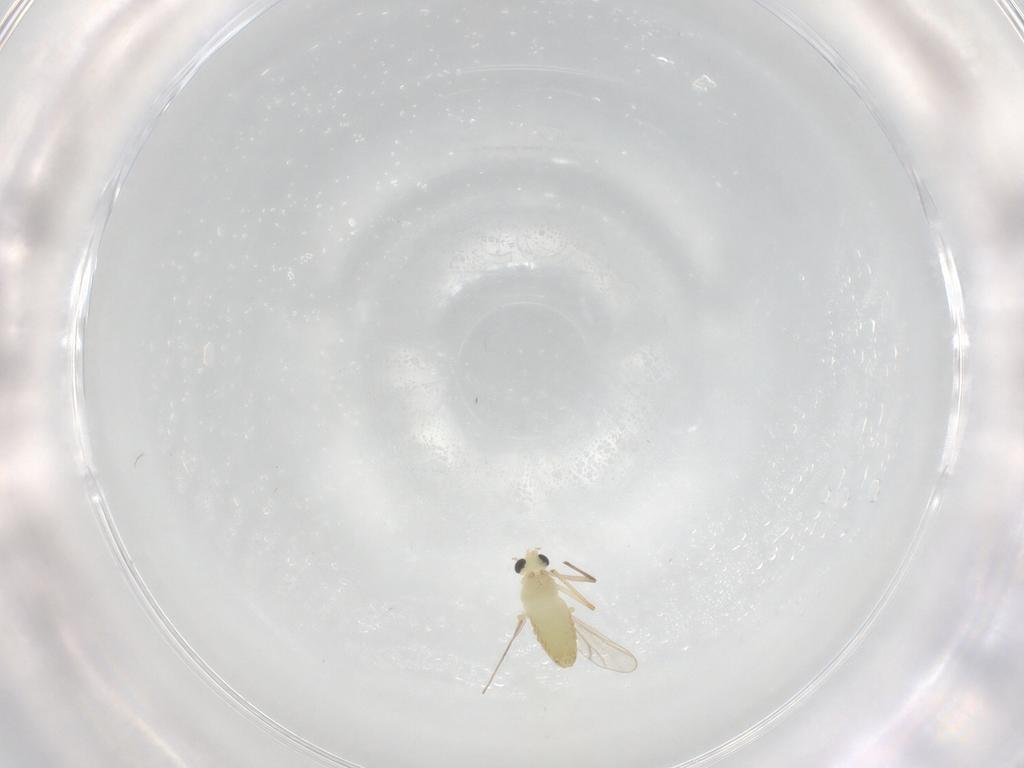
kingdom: Animalia
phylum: Arthropoda
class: Insecta
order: Diptera
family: Chironomidae
